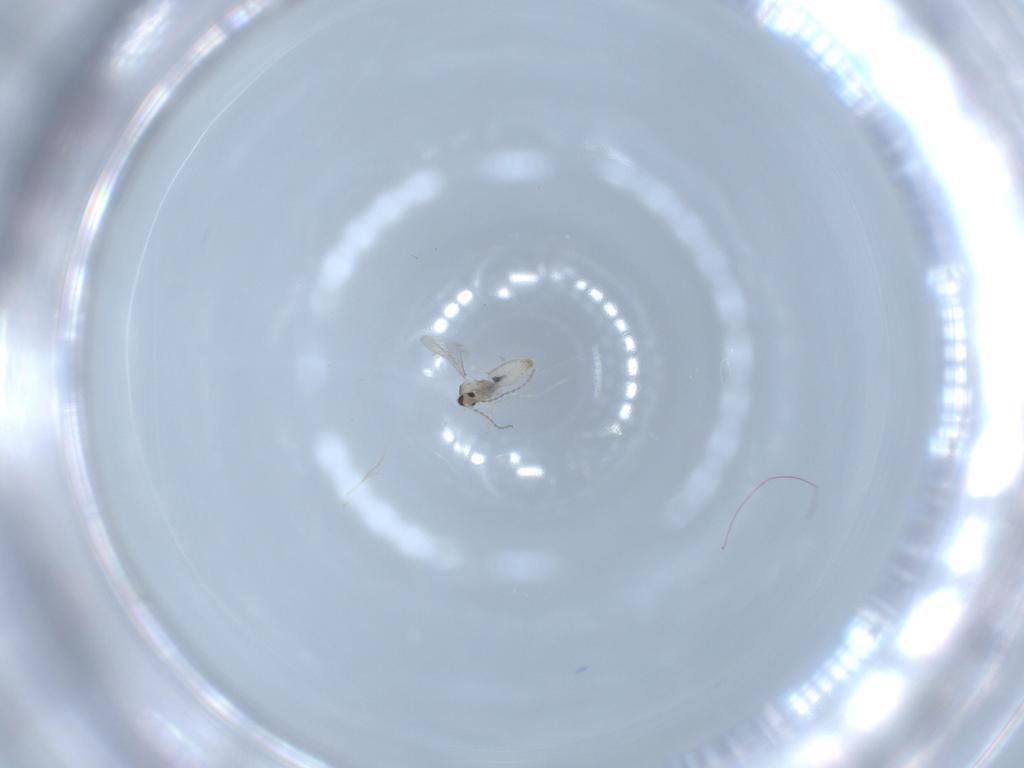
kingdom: Animalia
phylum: Arthropoda
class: Insecta
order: Diptera
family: Cecidomyiidae
